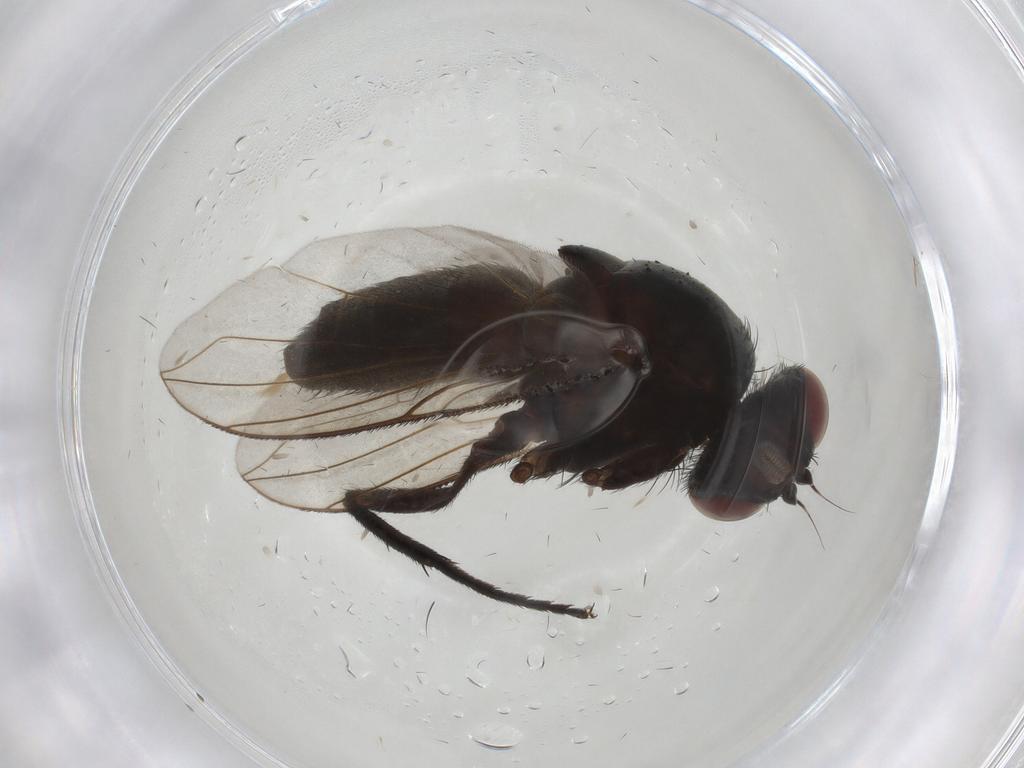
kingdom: Animalia
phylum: Arthropoda
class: Insecta
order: Diptera
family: Calliphoridae
